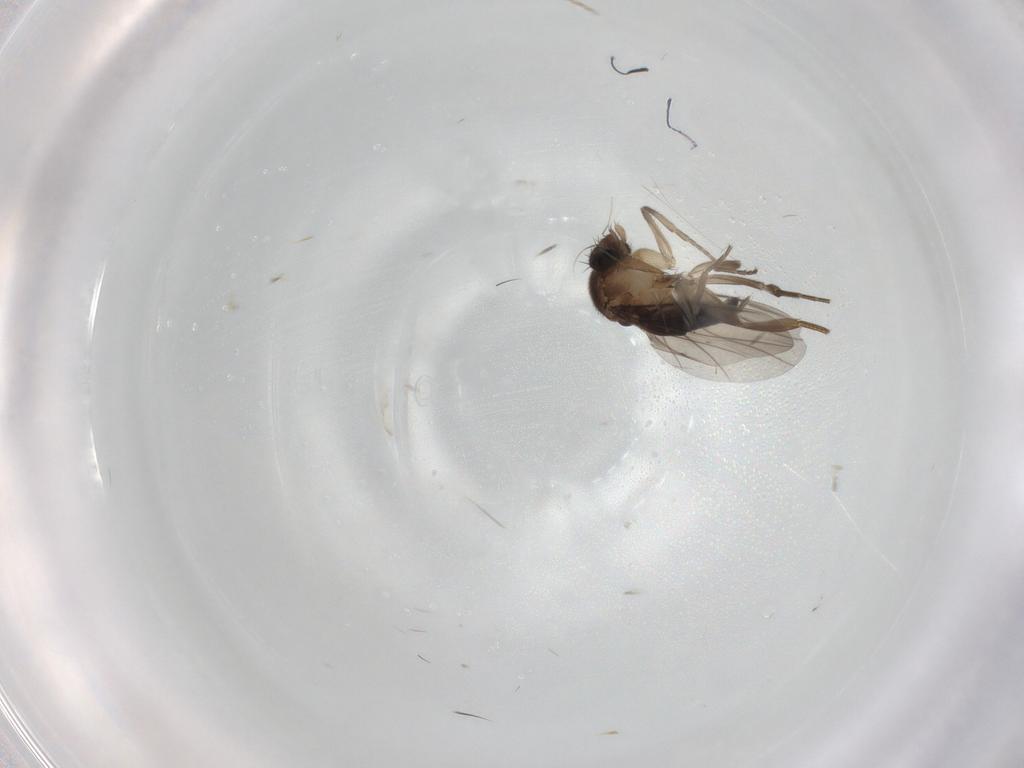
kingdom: Animalia
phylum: Arthropoda
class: Insecta
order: Diptera
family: Phoridae
